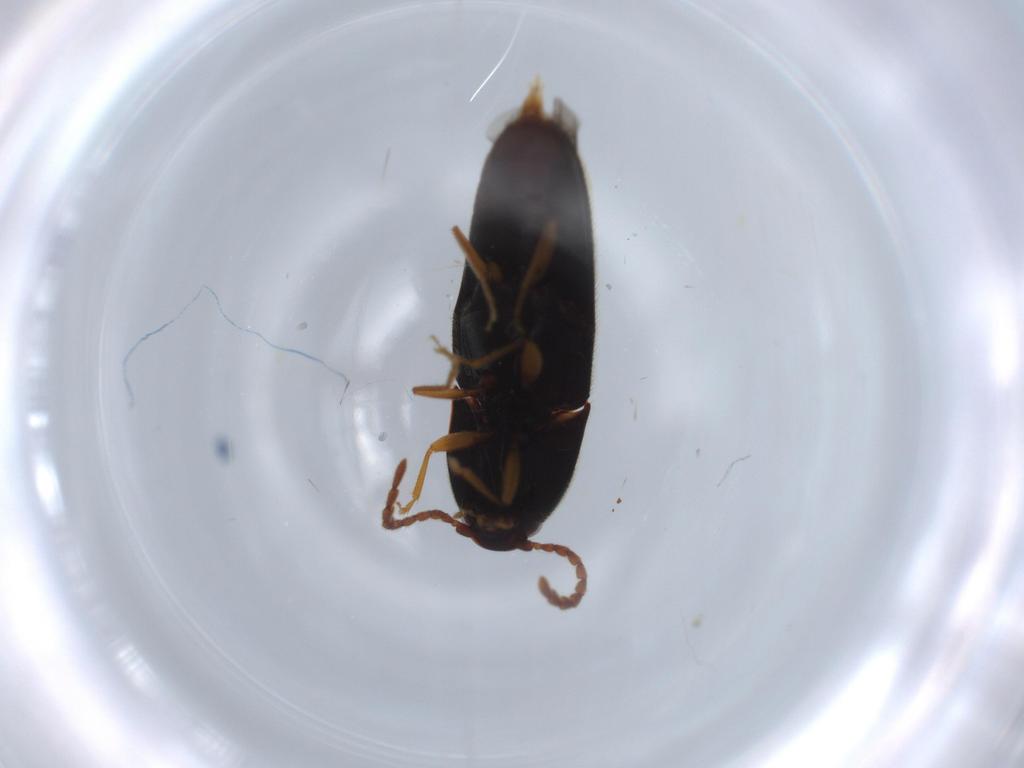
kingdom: Animalia
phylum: Arthropoda
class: Insecta
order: Coleoptera
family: Elateridae
